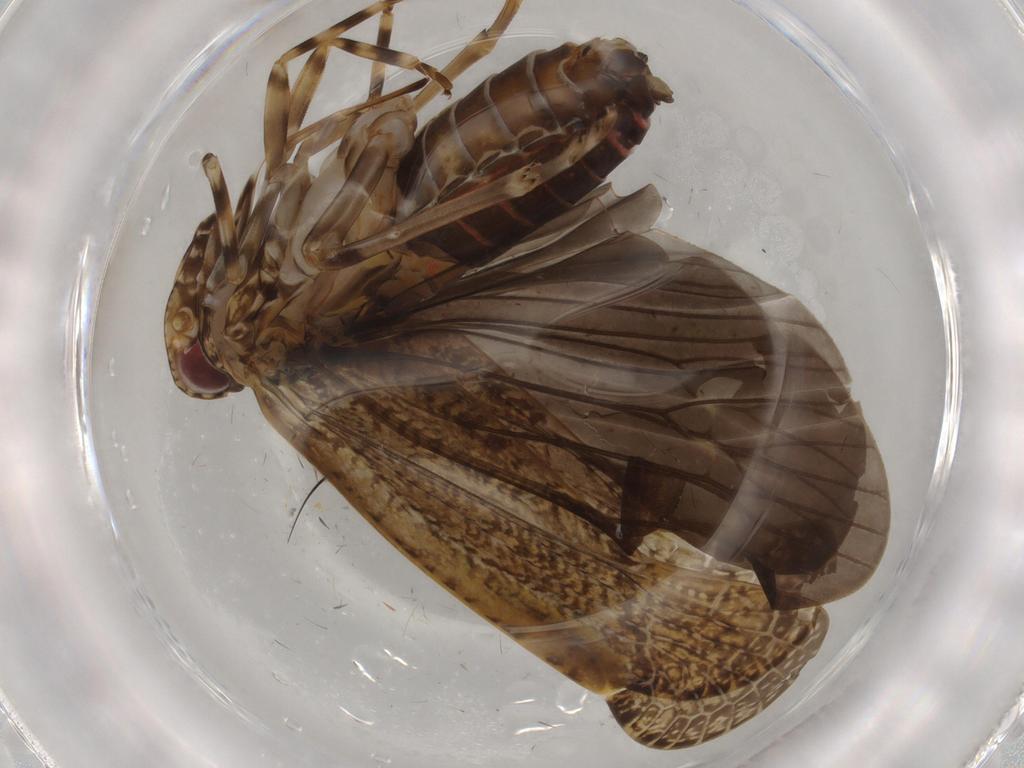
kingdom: Animalia
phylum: Arthropoda
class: Insecta
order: Hemiptera
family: Cicadellidae
